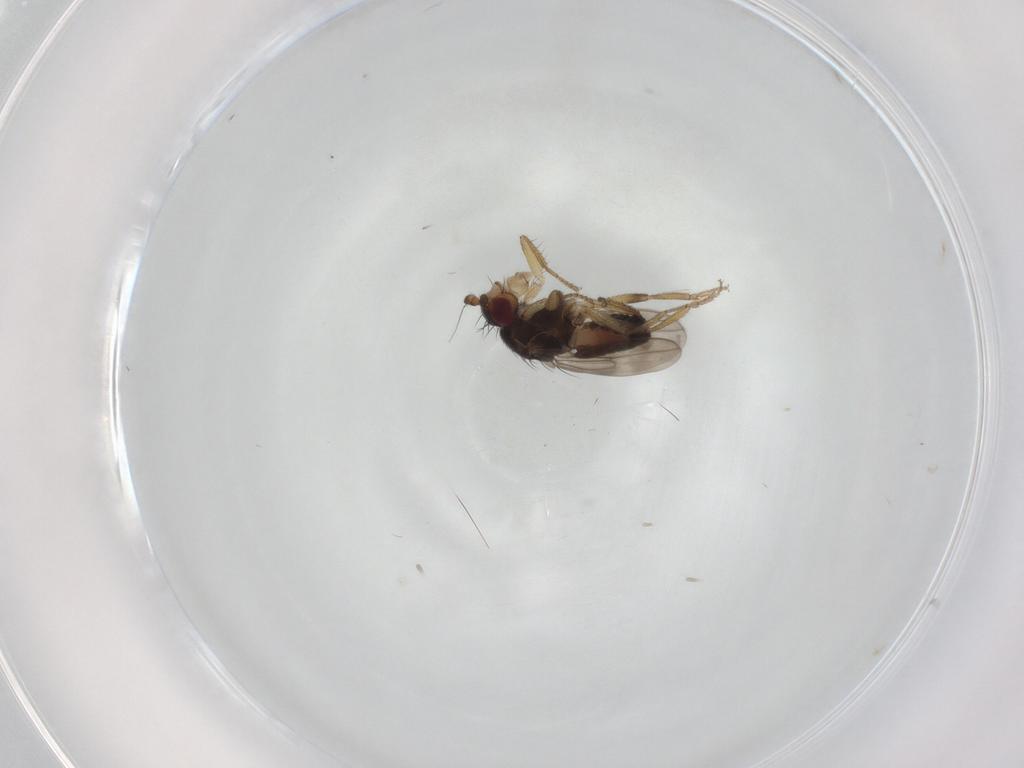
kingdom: Animalia
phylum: Arthropoda
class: Insecta
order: Diptera
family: Sphaeroceridae
